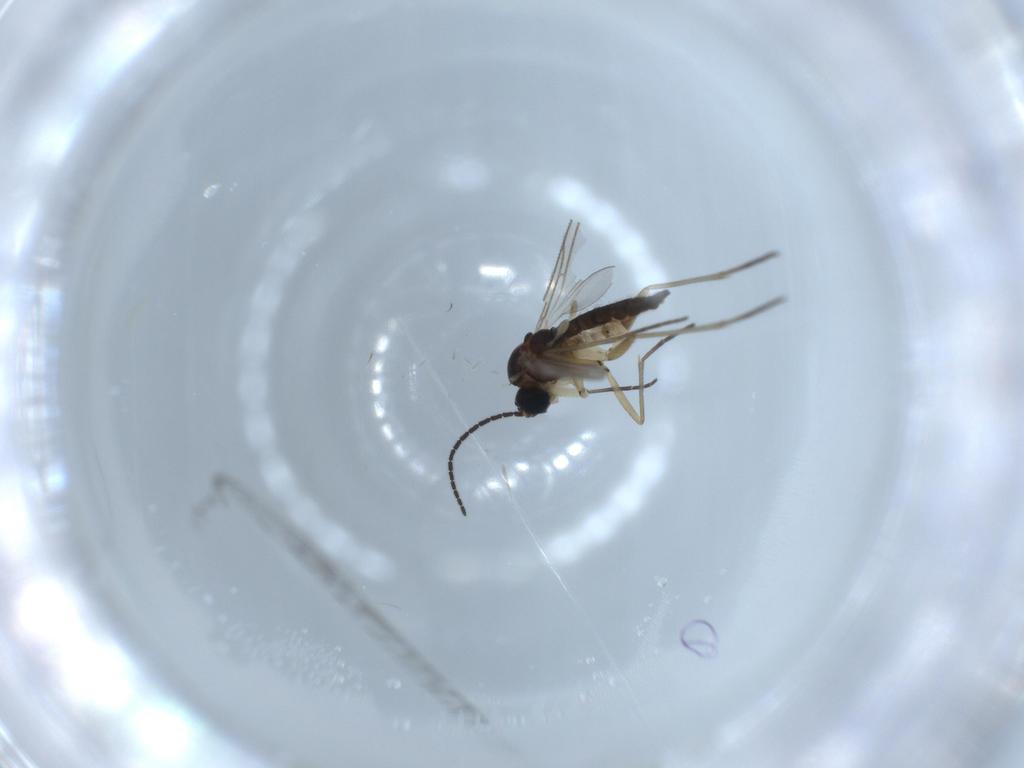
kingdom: Animalia
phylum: Arthropoda
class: Insecta
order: Diptera
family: Sciaridae
